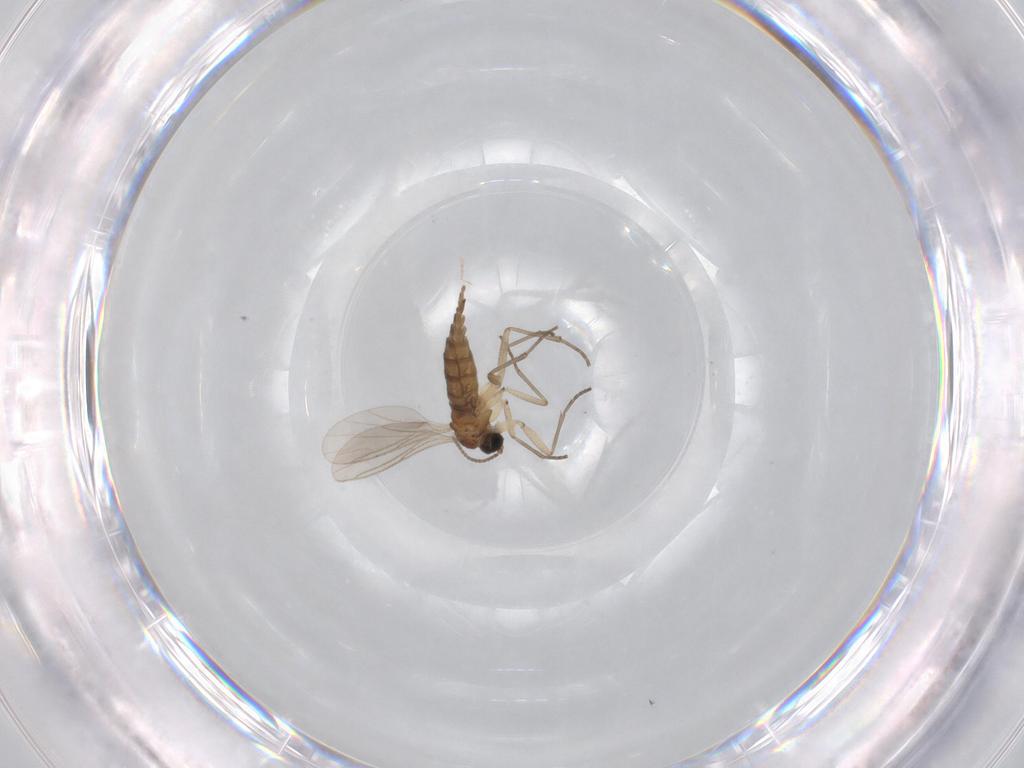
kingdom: Animalia
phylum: Arthropoda
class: Insecta
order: Diptera
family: Sciaridae
